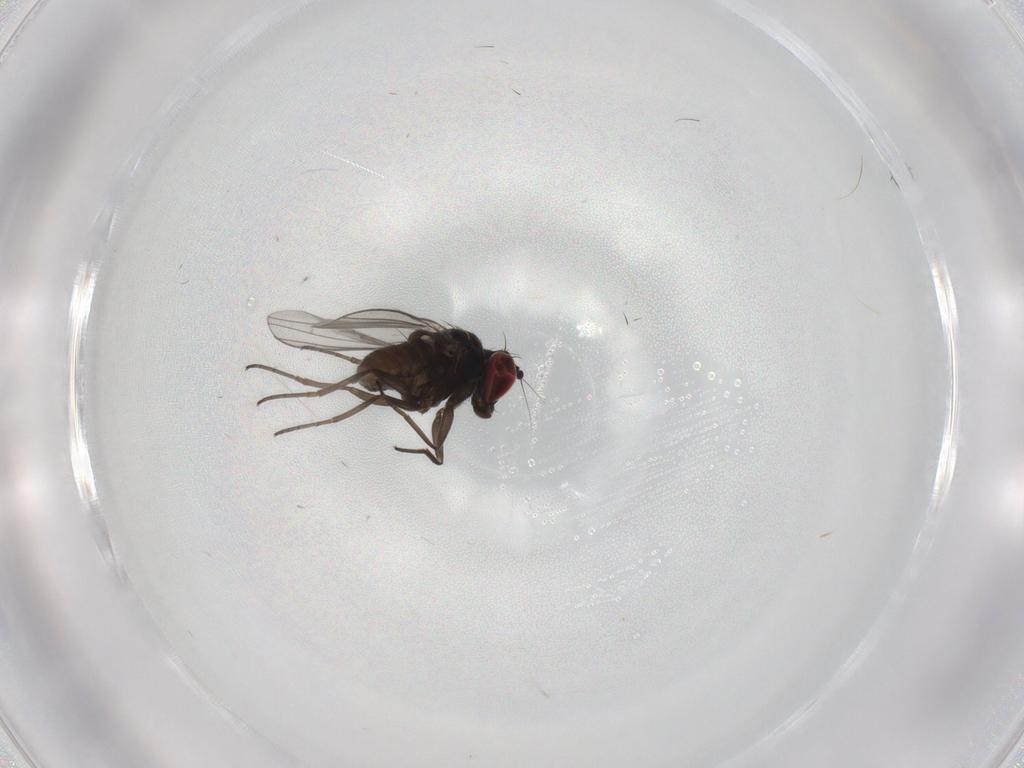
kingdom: Animalia
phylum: Arthropoda
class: Insecta
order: Diptera
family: Dolichopodidae
